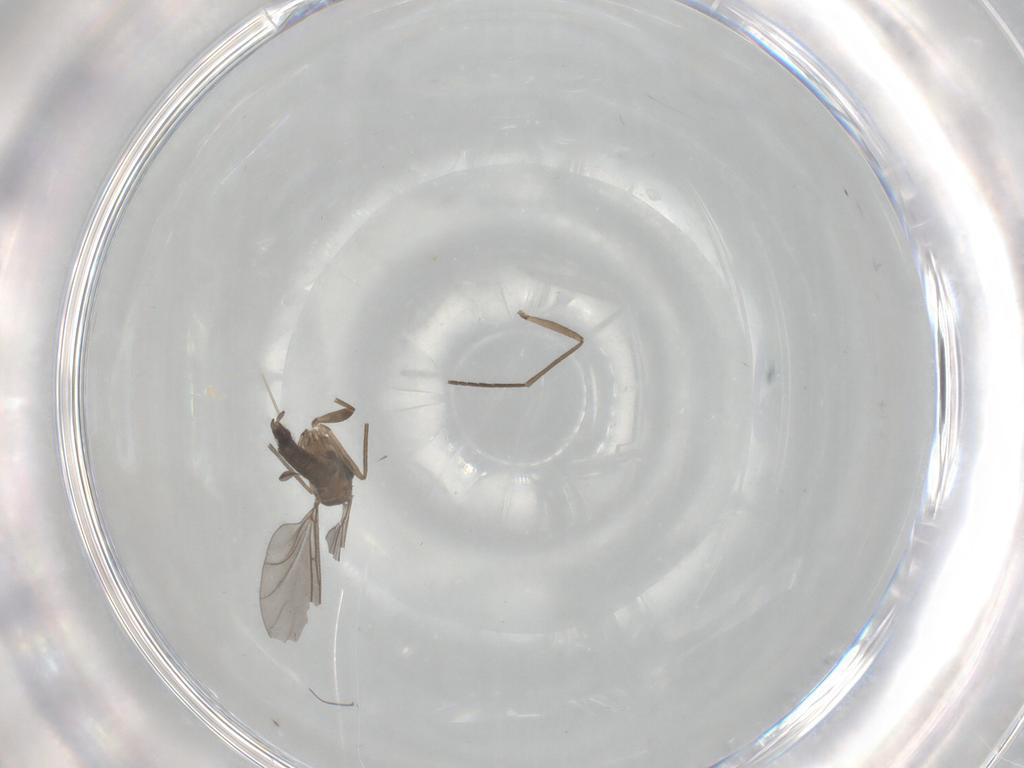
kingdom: Animalia
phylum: Arthropoda
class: Insecta
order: Diptera
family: Sciaridae
